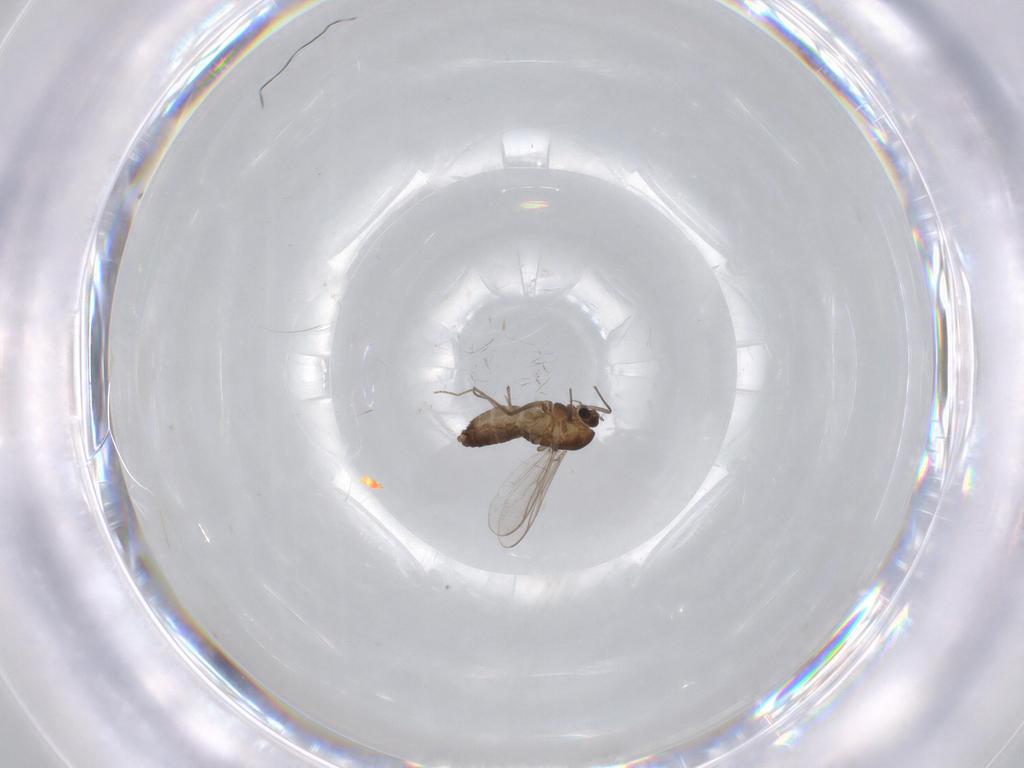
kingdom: Animalia
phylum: Arthropoda
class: Insecta
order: Diptera
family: Chironomidae
